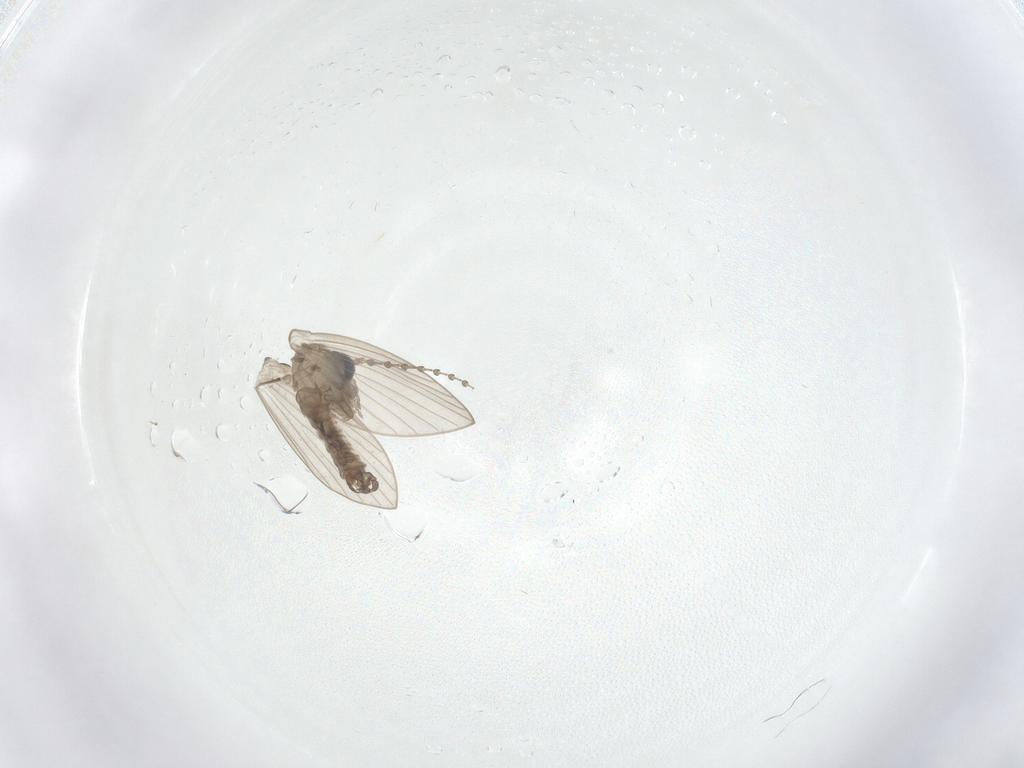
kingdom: Animalia
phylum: Arthropoda
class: Insecta
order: Diptera
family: Psychodidae
